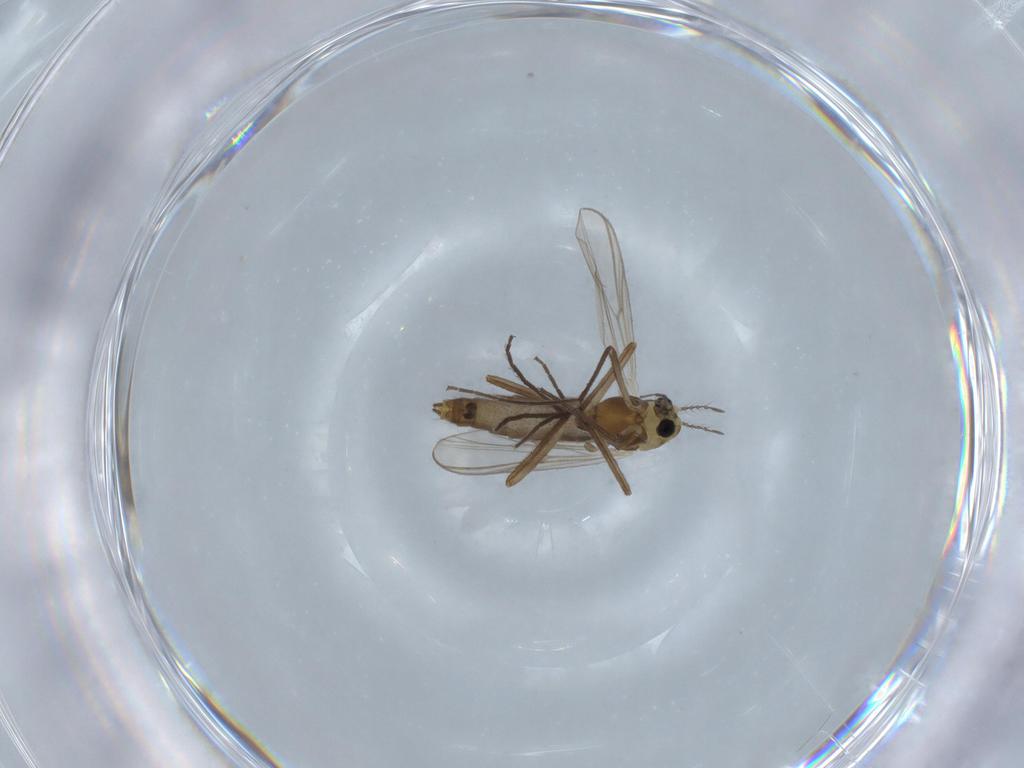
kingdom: Animalia
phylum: Arthropoda
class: Insecta
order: Diptera
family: Chironomidae
